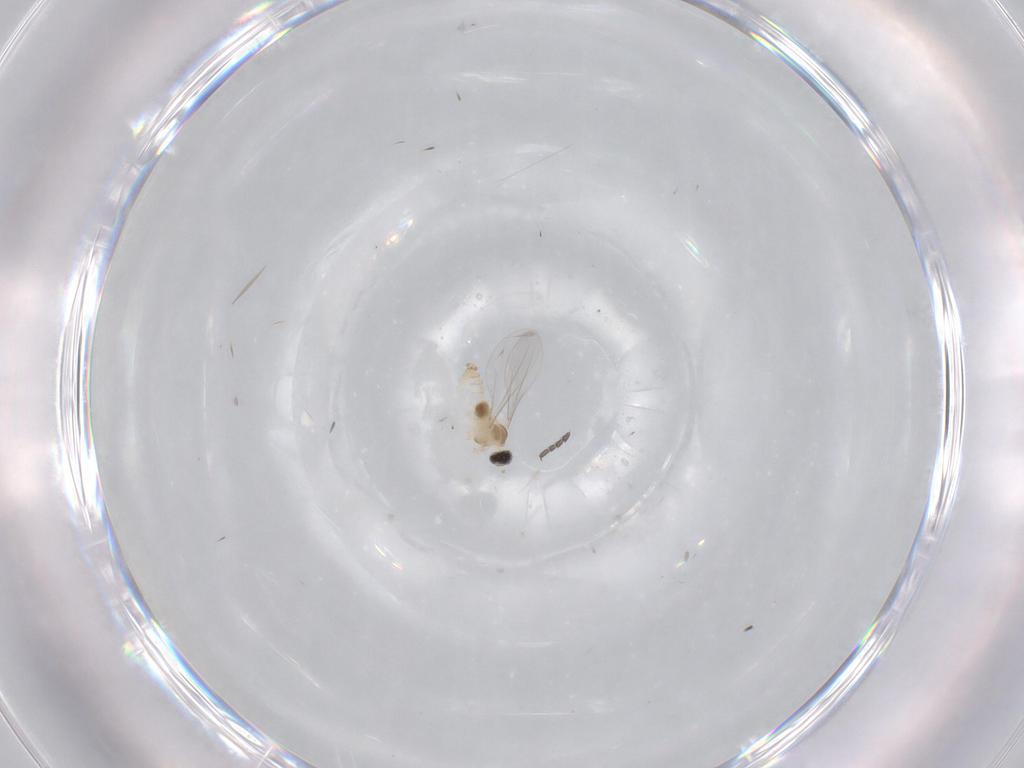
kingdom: Animalia
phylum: Arthropoda
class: Insecta
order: Diptera
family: Cecidomyiidae
